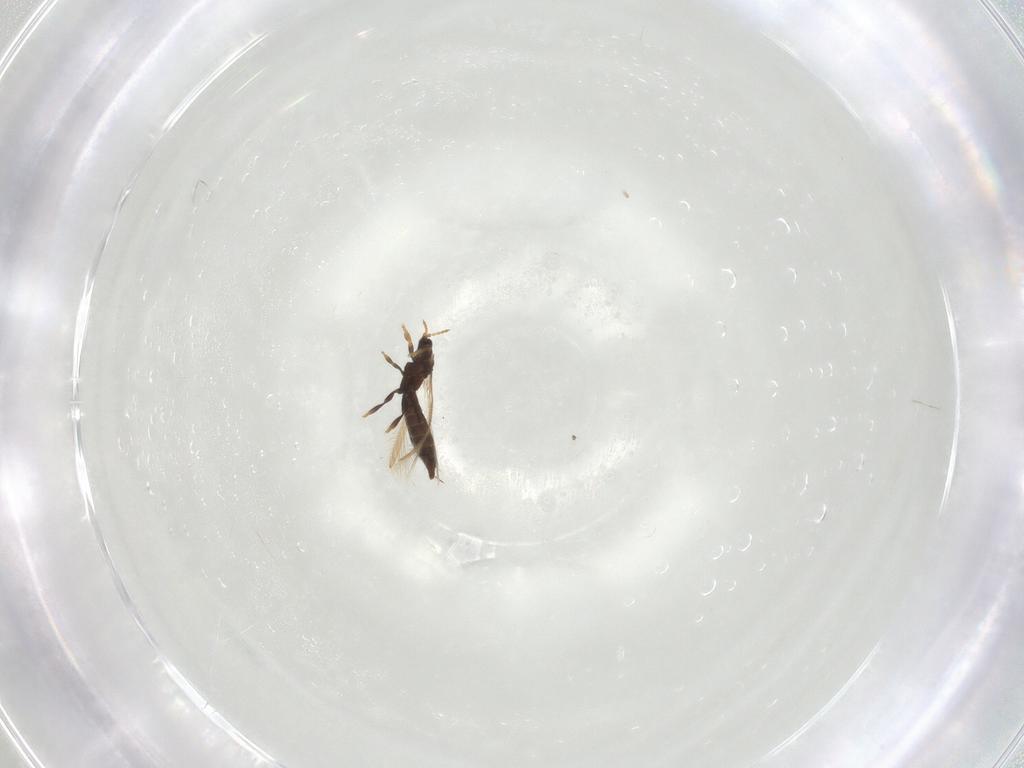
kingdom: Animalia
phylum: Arthropoda
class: Insecta
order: Thysanoptera
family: Thripidae
